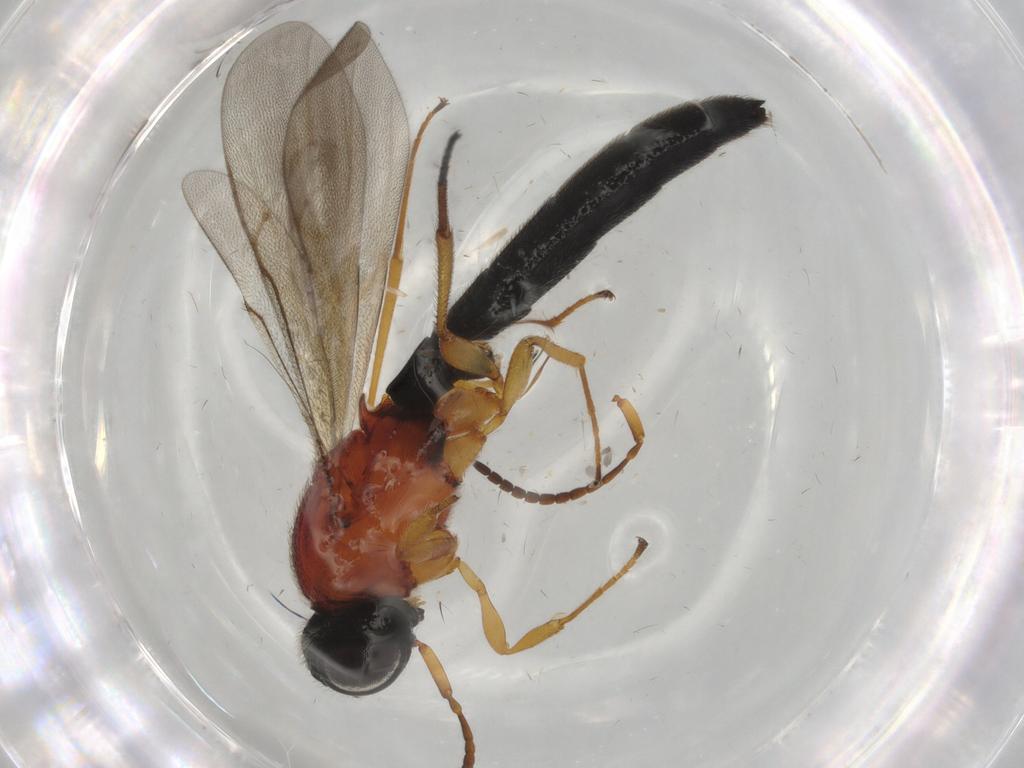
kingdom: Animalia
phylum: Arthropoda
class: Insecta
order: Hymenoptera
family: Scelionidae
